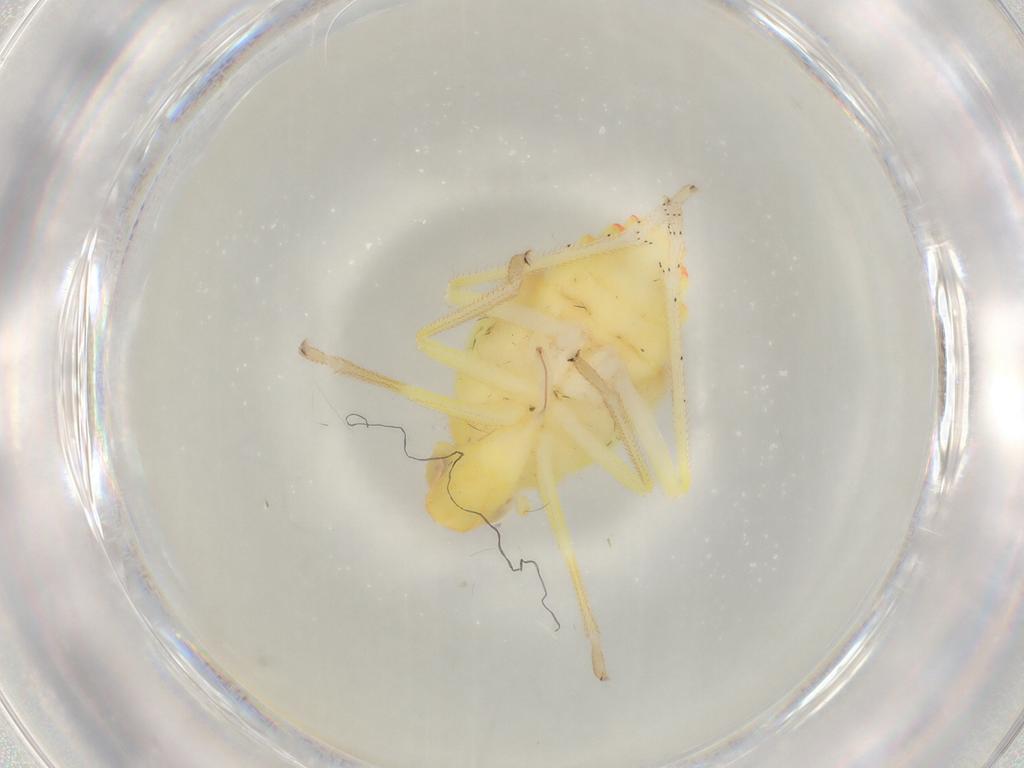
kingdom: Animalia
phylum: Arthropoda
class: Insecta
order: Hemiptera
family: Tropiduchidae
